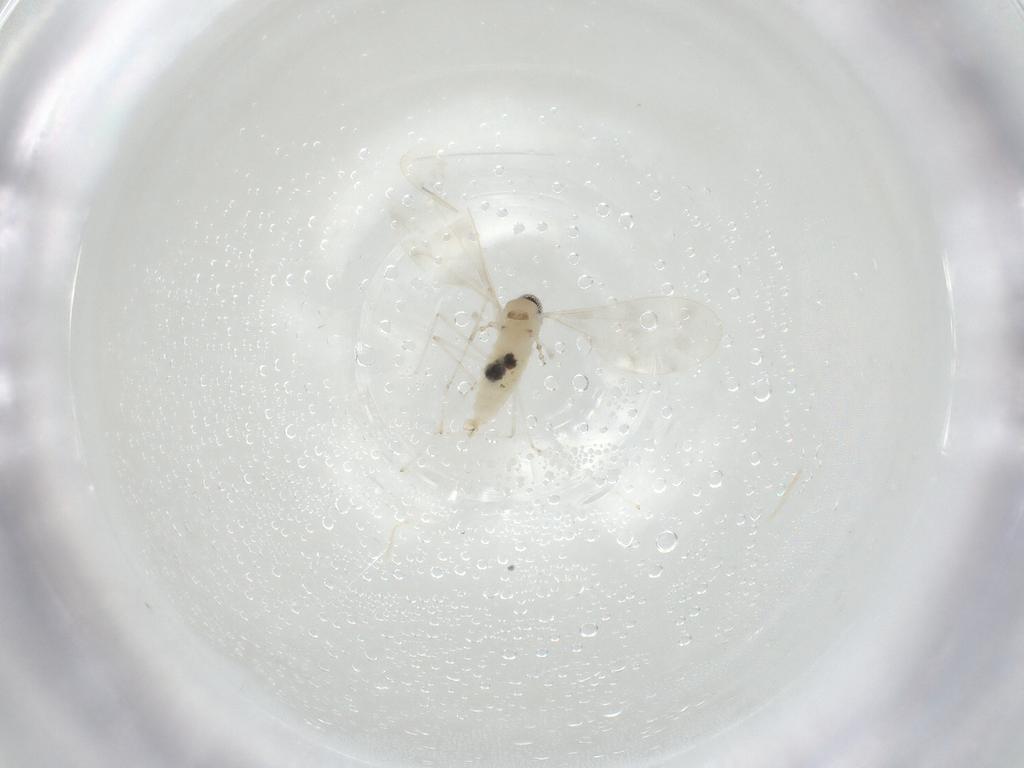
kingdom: Animalia
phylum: Arthropoda
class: Insecta
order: Diptera
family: Cecidomyiidae
